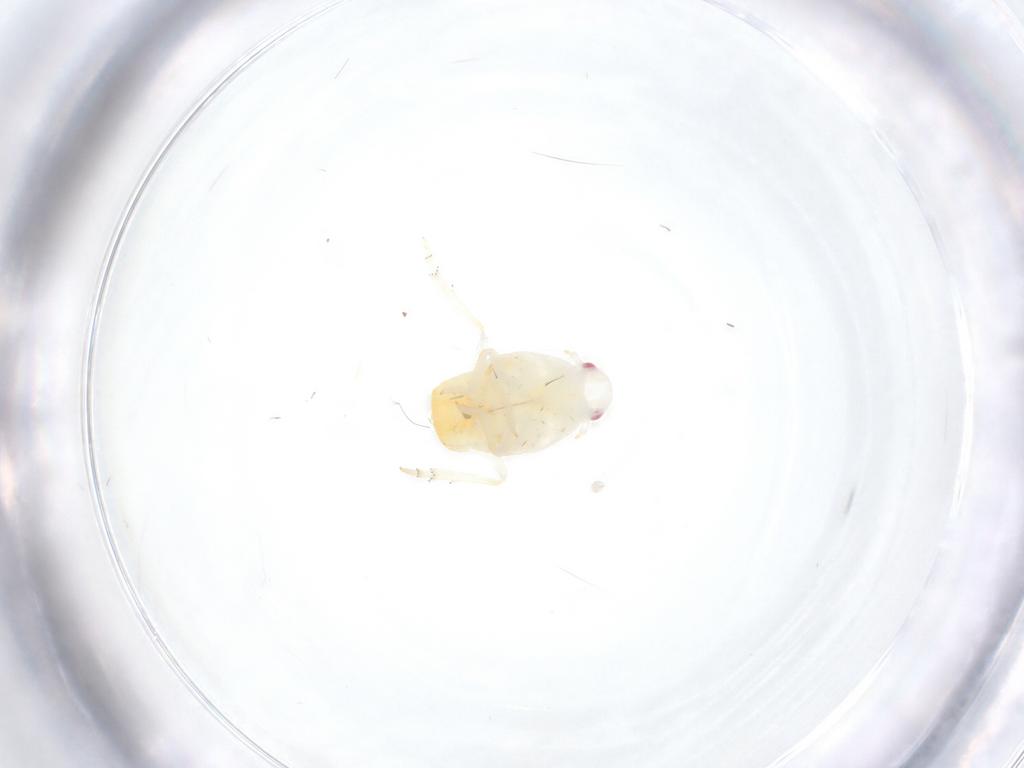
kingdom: Animalia
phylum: Arthropoda
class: Insecta
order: Hemiptera
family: Fulgoroidea_incertae_sedis
